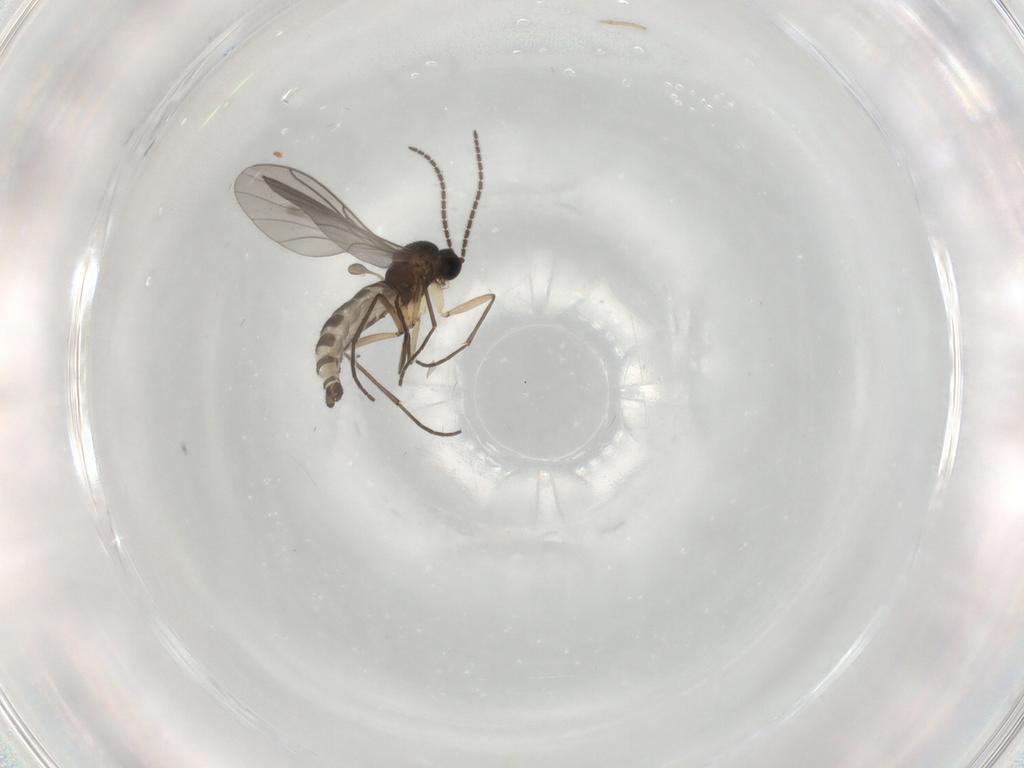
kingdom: Animalia
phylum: Arthropoda
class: Insecta
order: Diptera
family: Sciaridae
